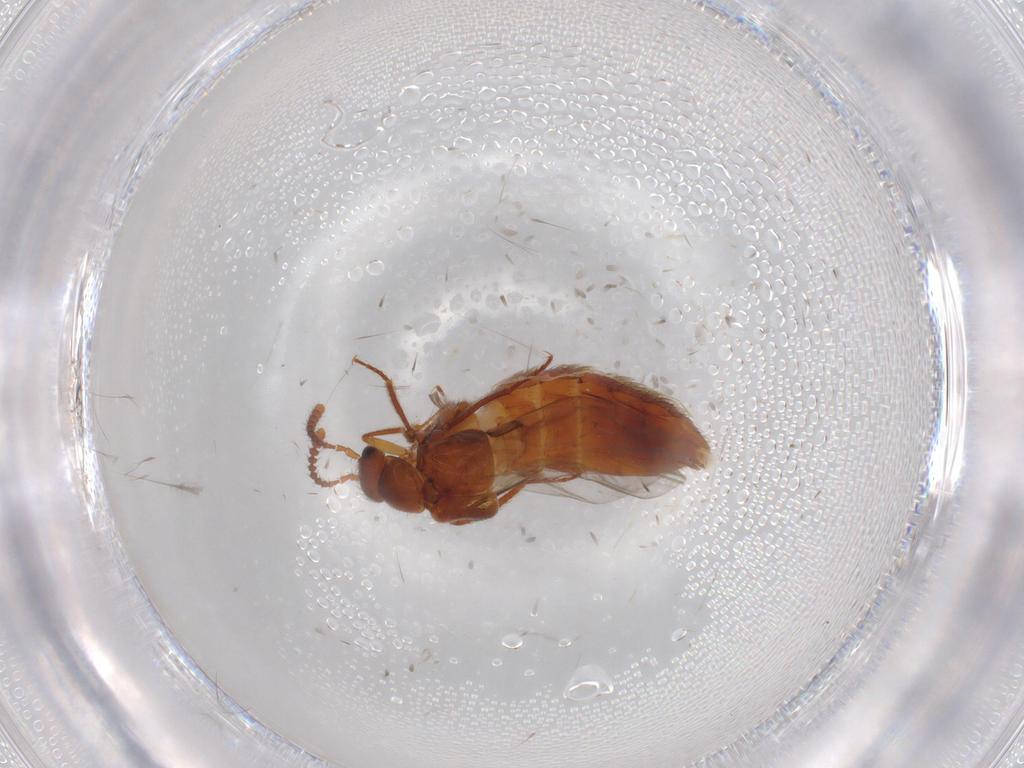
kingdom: Animalia
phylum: Arthropoda
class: Insecta
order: Coleoptera
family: Staphylinidae
